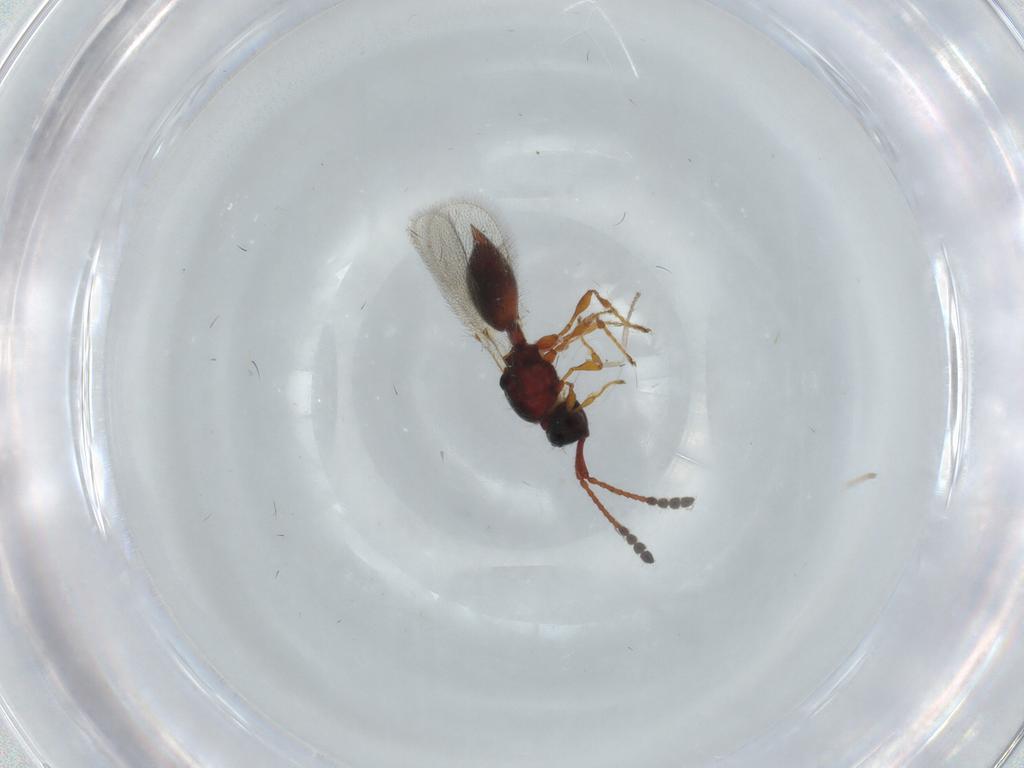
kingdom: Animalia
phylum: Arthropoda
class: Insecta
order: Hymenoptera
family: Diapriidae
